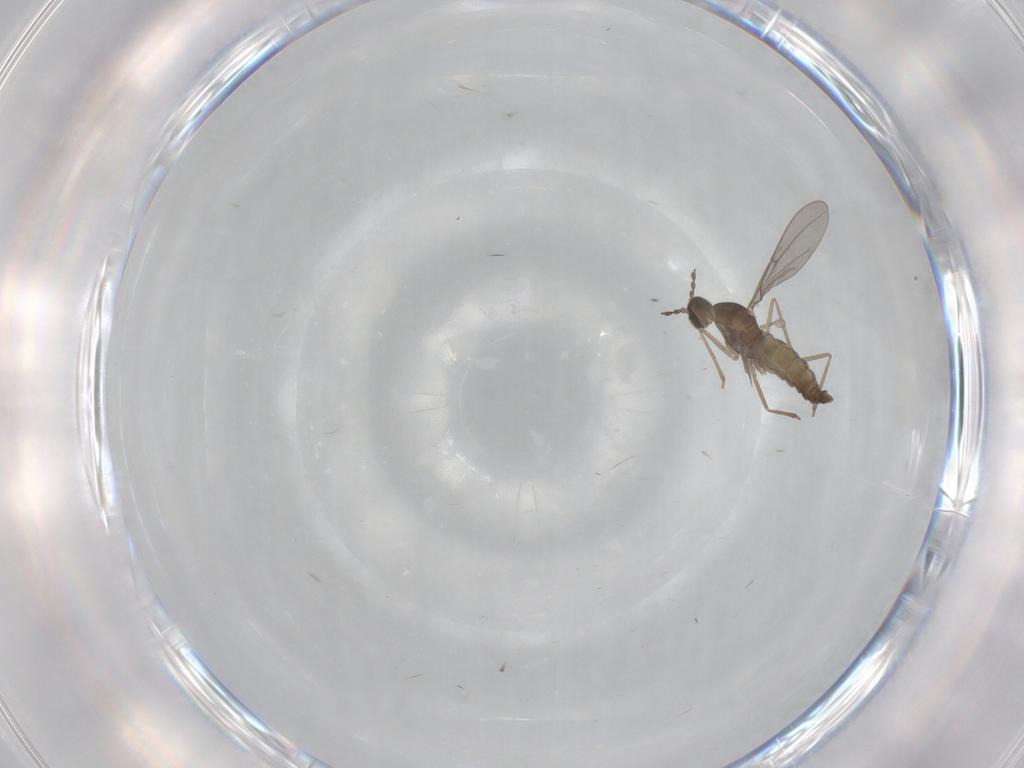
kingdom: Animalia
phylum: Arthropoda
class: Insecta
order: Diptera
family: Cecidomyiidae
